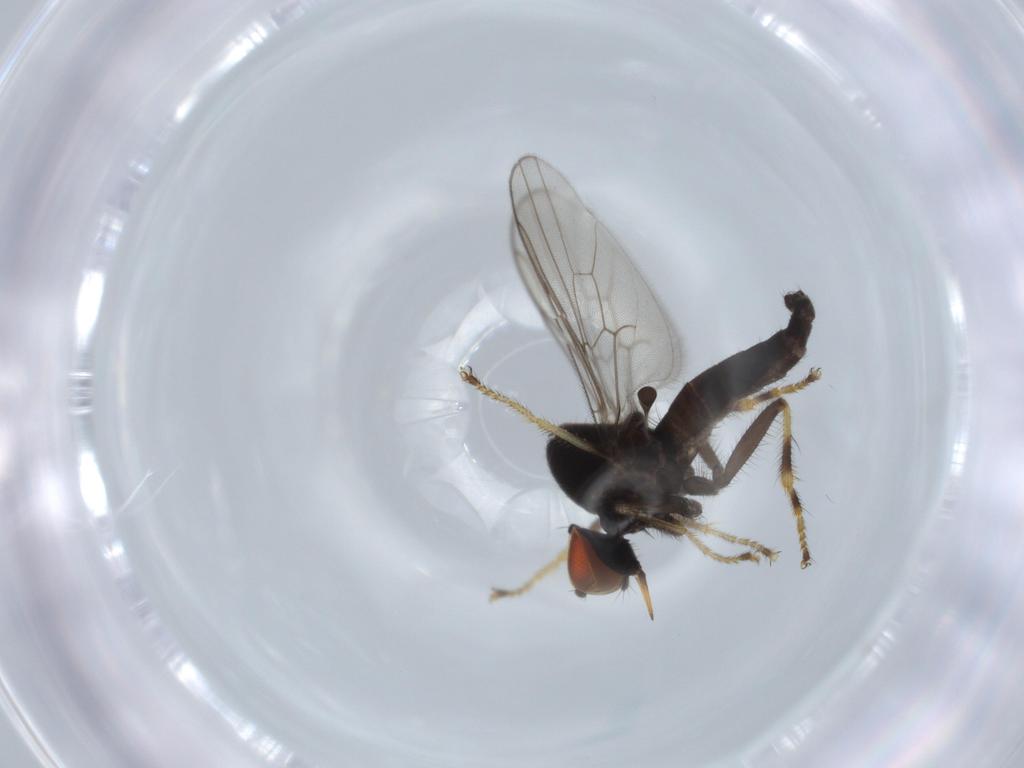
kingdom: Animalia
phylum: Arthropoda
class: Insecta
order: Diptera
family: Hybotidae
